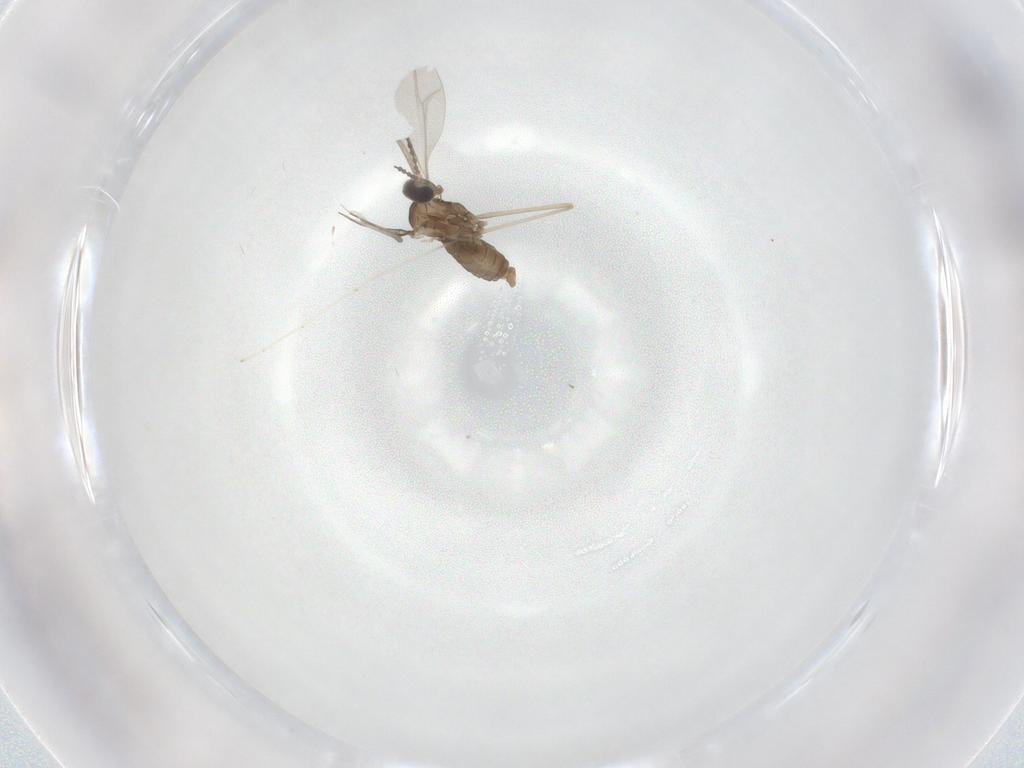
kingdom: Animalia
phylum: Arthropoda
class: Insecta
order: Diptera
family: Cecidomyiidae
